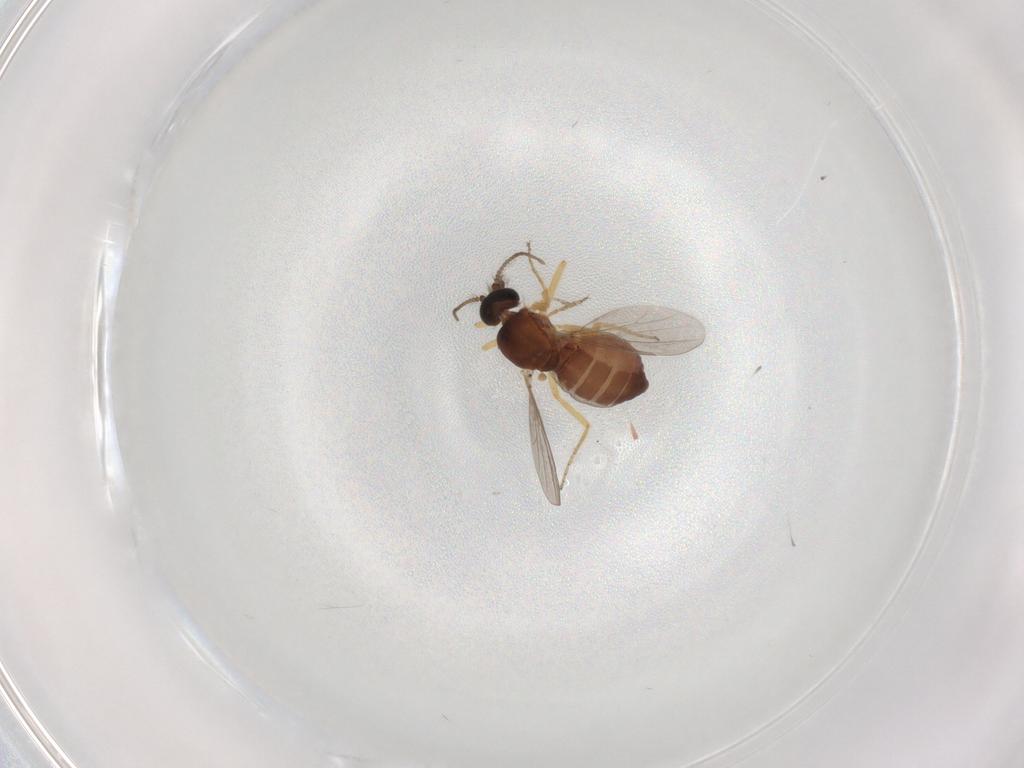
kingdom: Animalia
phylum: Arthropoda
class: Insecta
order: Diptera
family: Ceratopogonidae
